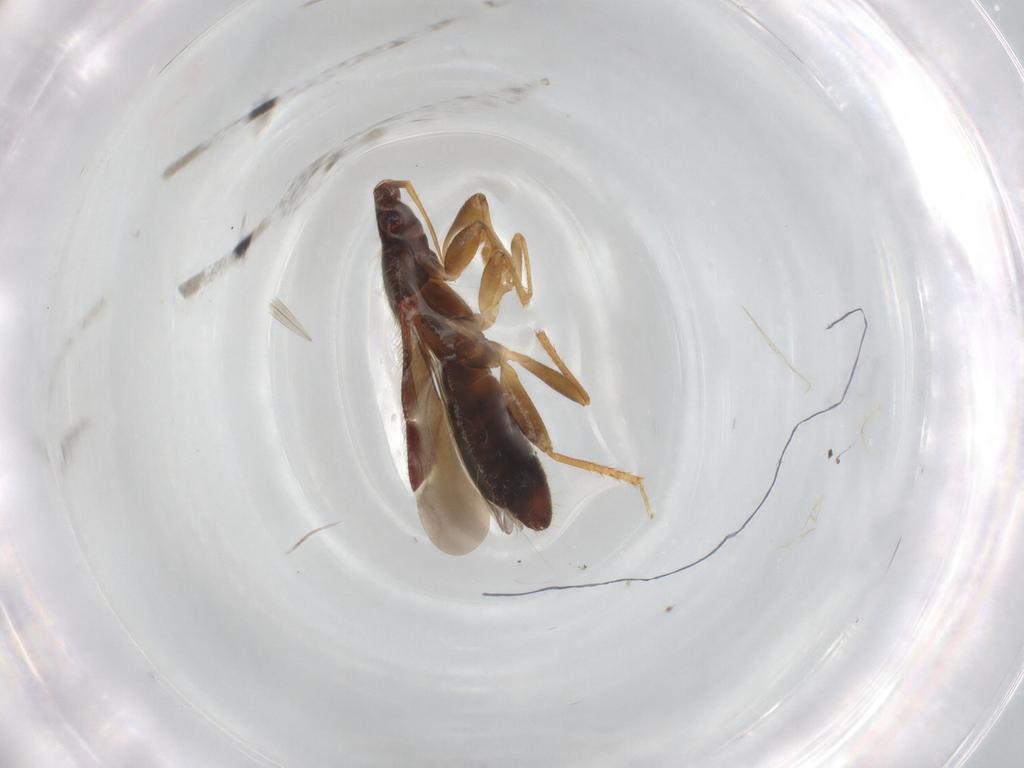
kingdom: Animalia
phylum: Arthropoda
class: Insecta
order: Hemiptera
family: Lasiochilidae
